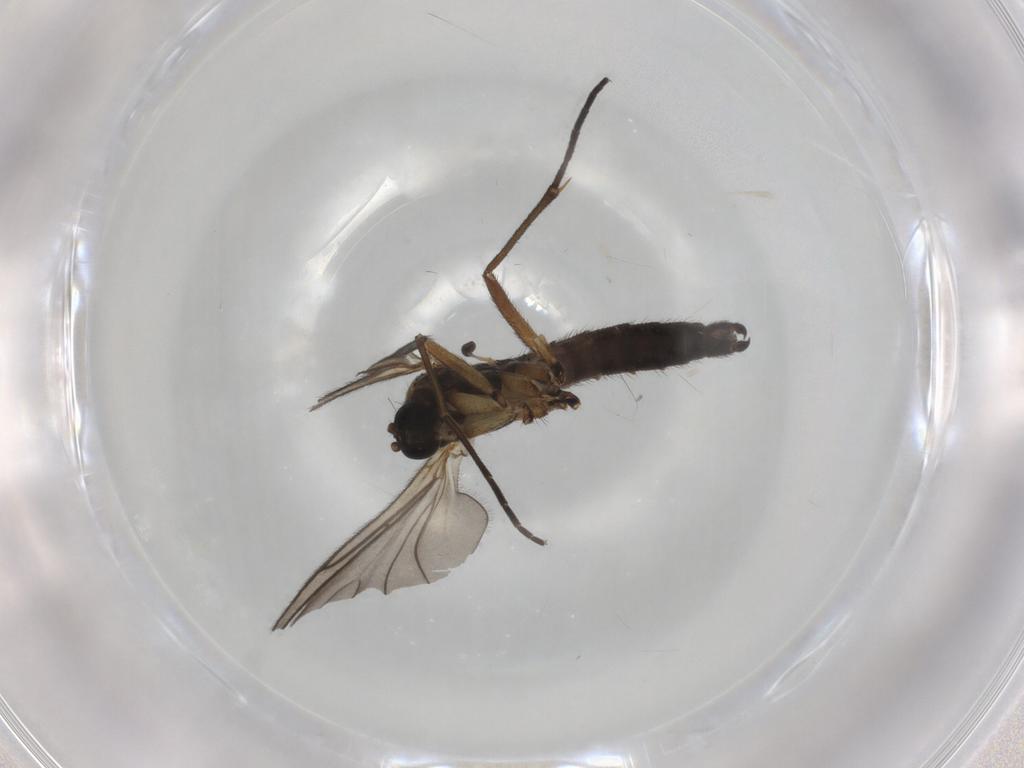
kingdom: Animalia
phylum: Arthropoda
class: Insecta
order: Diptera
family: Sciaridae
